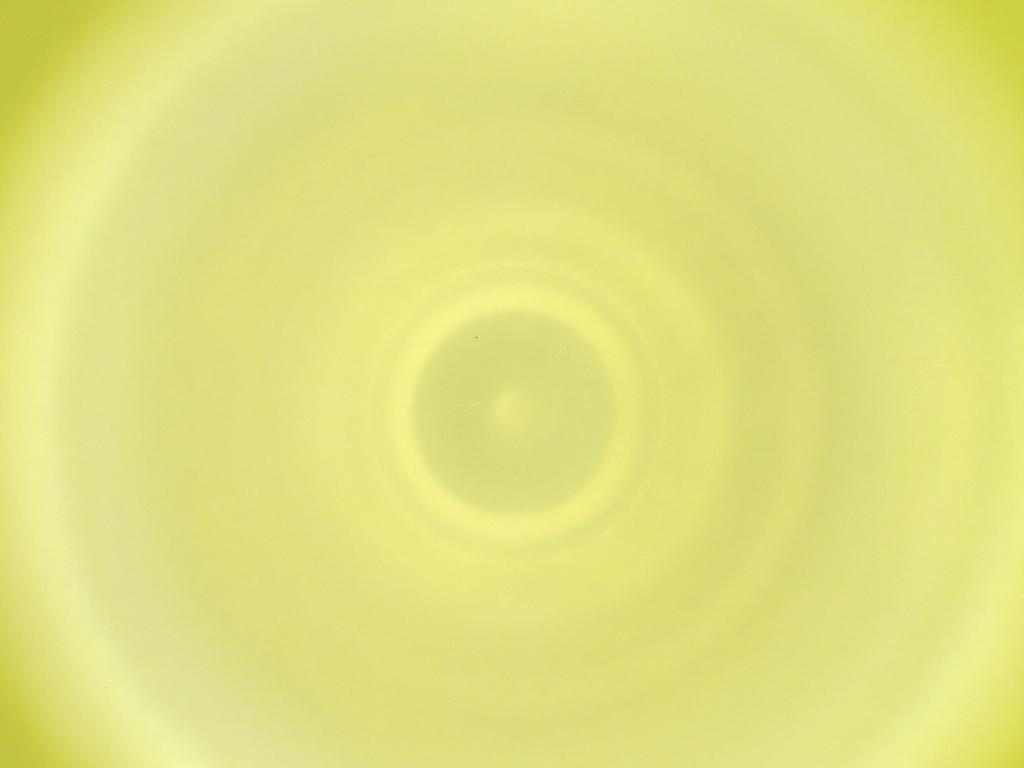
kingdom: Animalia
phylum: Arthropoda
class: Insecta
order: Diptera
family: Cecidomyiidae
